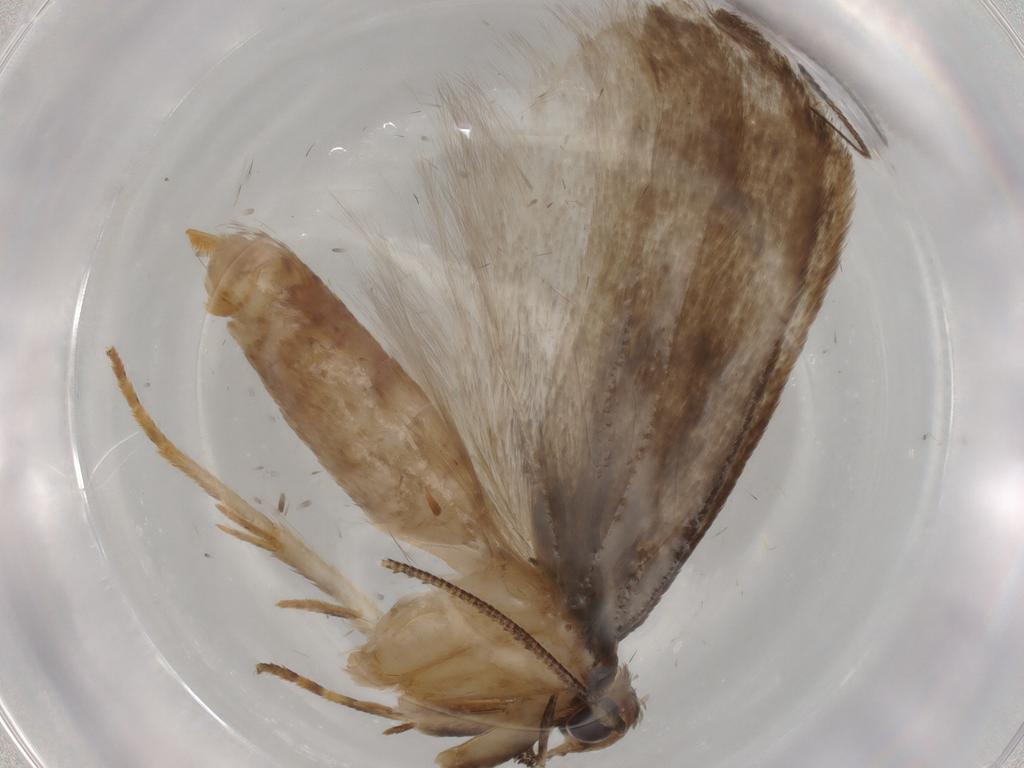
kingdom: Animalia
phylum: Arthropoda
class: Insecta
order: Lepidoptera
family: Gelechiidae
